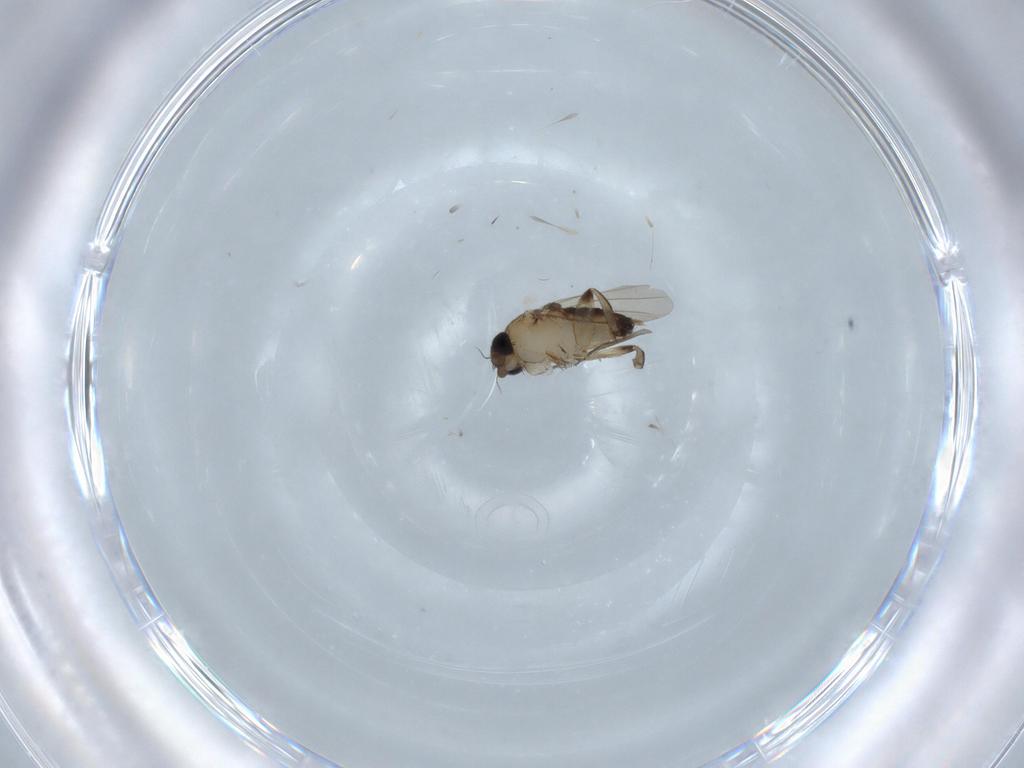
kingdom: Animalia
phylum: Arthropoda
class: Insecta
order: Diptera
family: Phoridae
